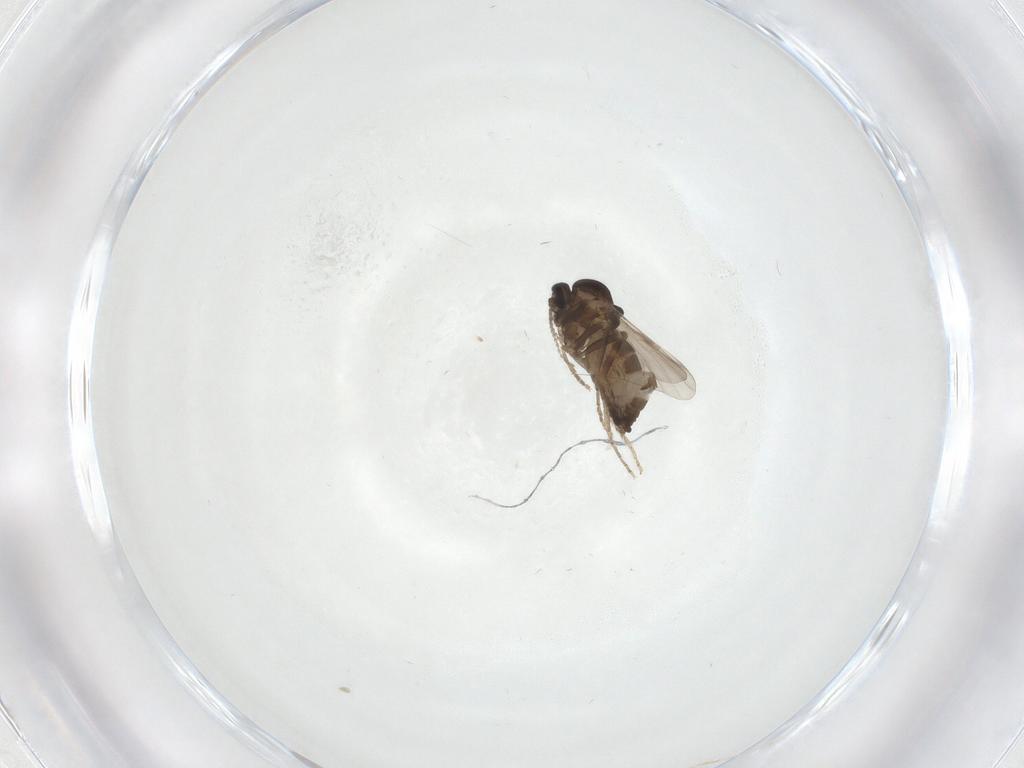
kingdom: Animalia
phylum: Arthropoda
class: Insecta
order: Diptera
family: Ceratopogonidae
